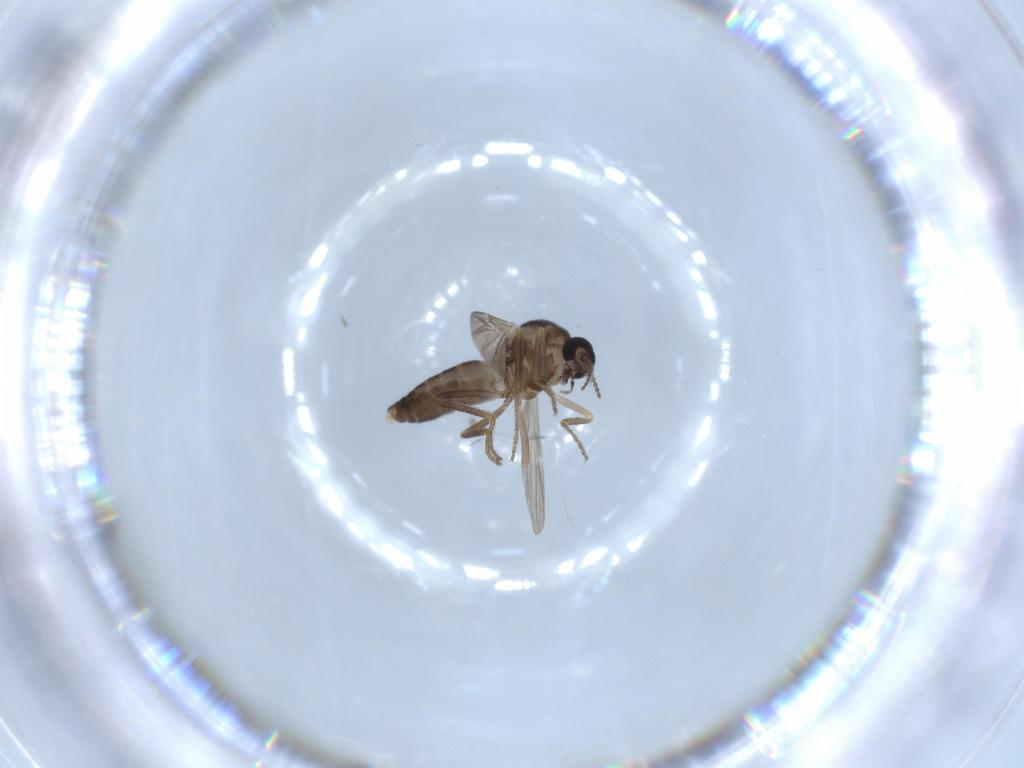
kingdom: Animalia
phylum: Arthropoda
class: Insecta
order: Diptera
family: Ceratopogonidae
